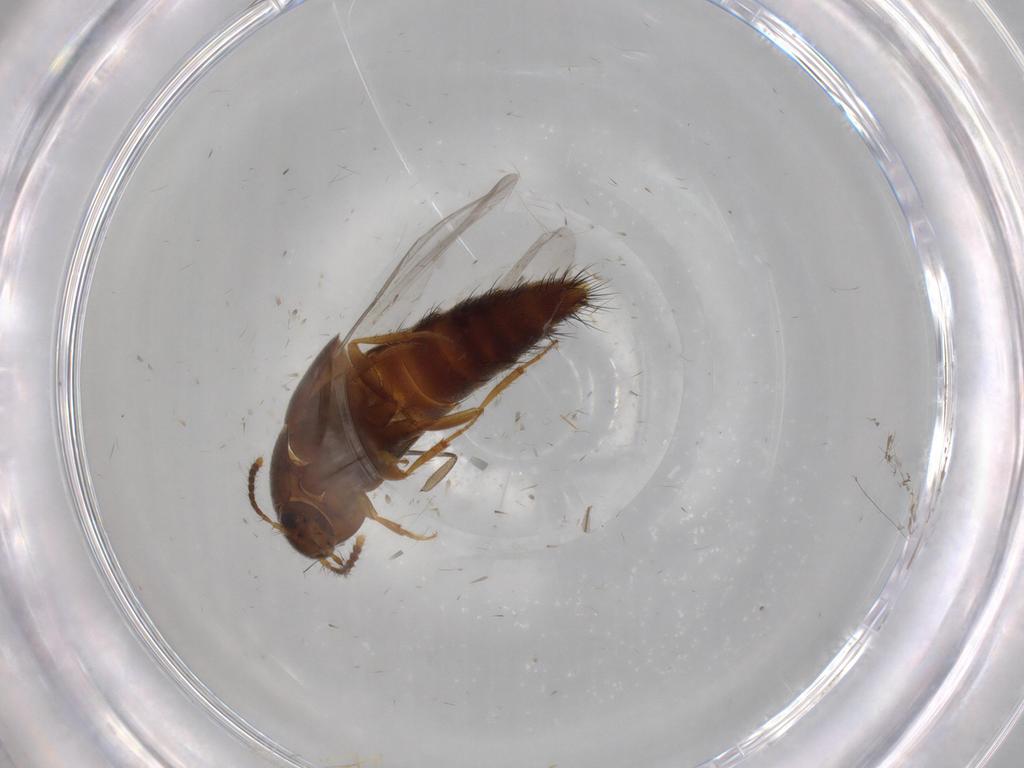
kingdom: Animalia
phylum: Arthropoda
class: Insecta
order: Coleoptera
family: Staphylinidae
